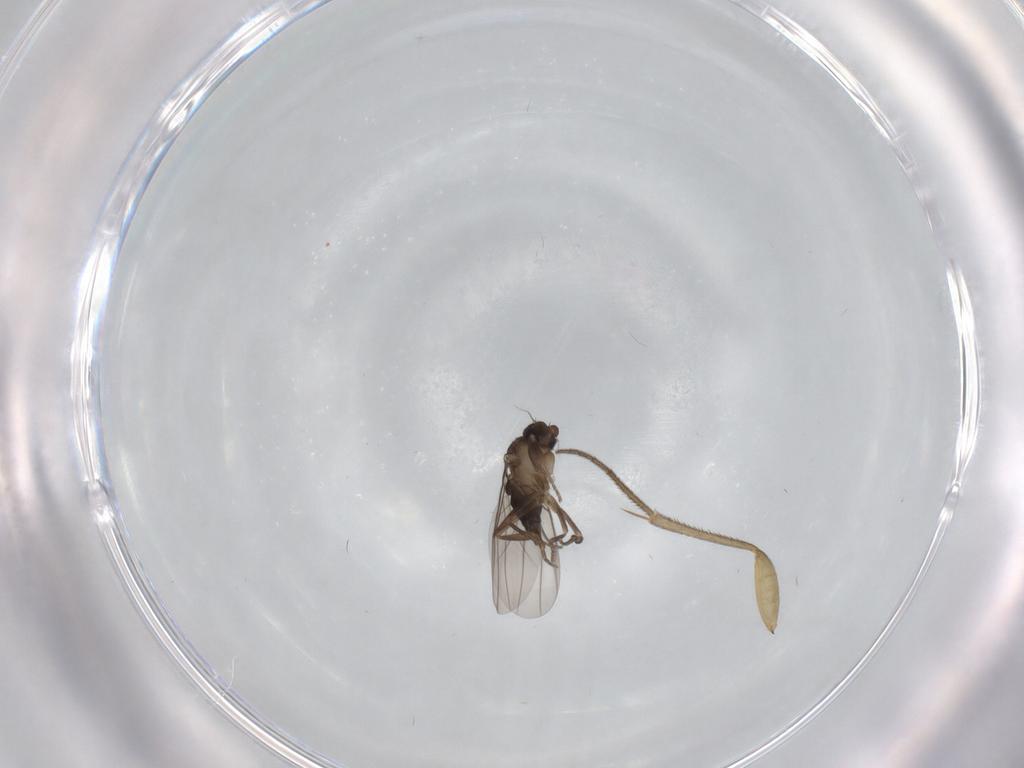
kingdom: Animalia
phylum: Arthropoda
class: Insecta
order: Diptera
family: Mycetophilidae
